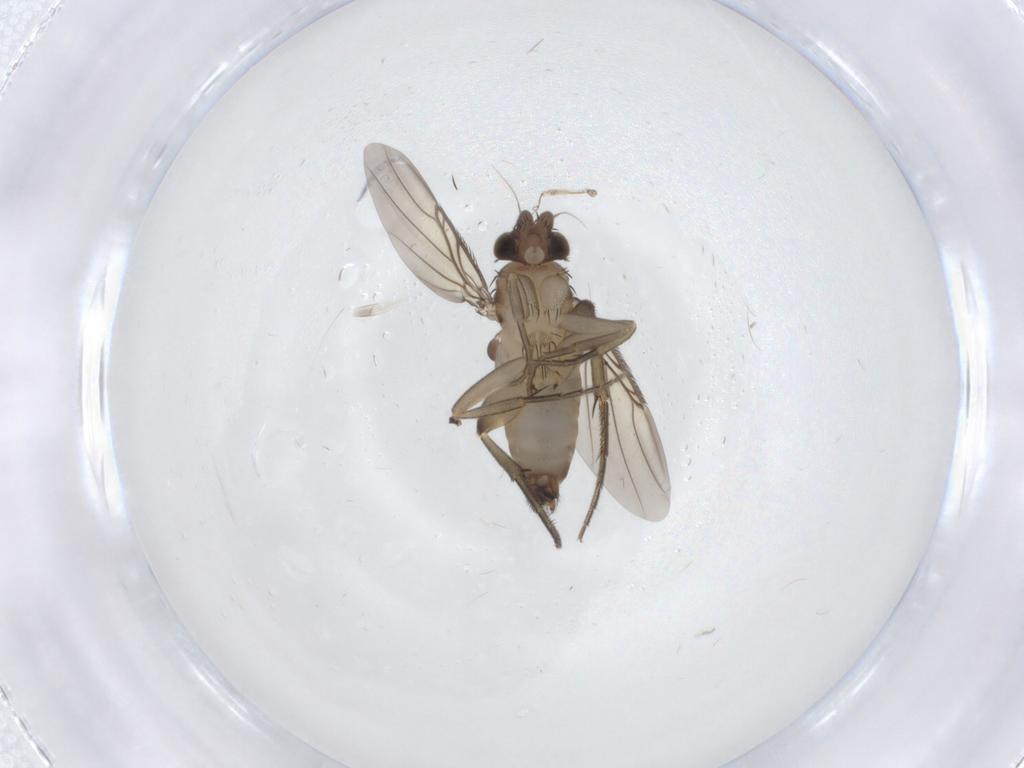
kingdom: Animalia
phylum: Arthropoda
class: Insecta
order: Diptera
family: Phoridae
